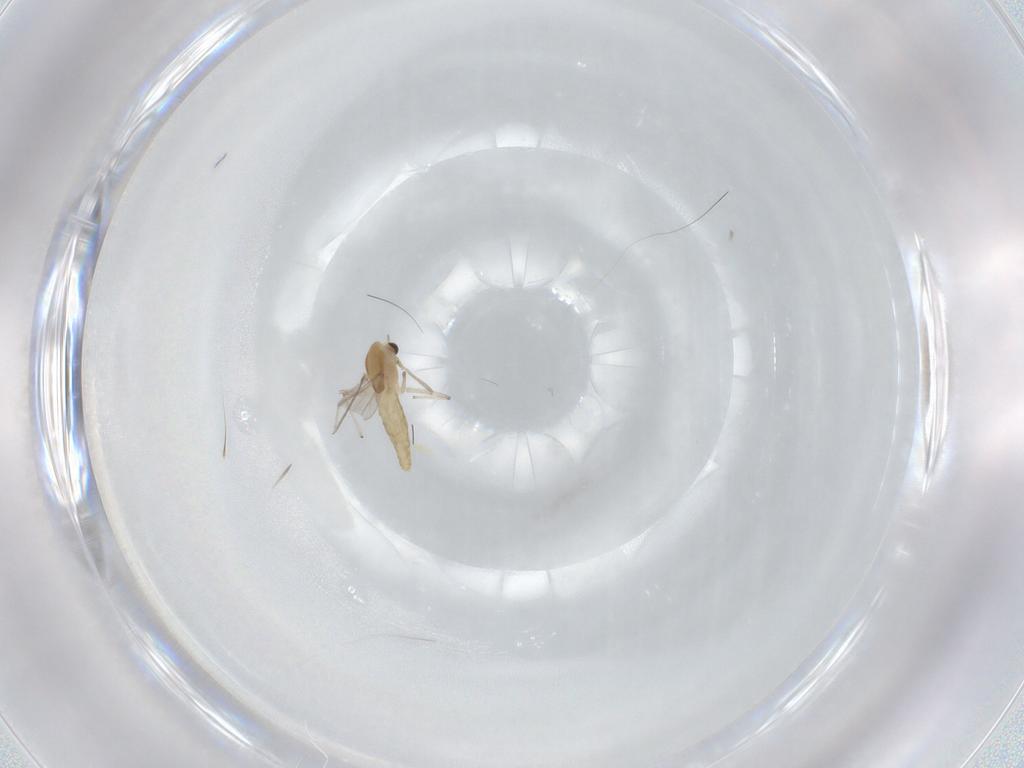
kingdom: Animalia
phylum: Arthropoda
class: Insecta
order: Diptera
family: Chironomidae
